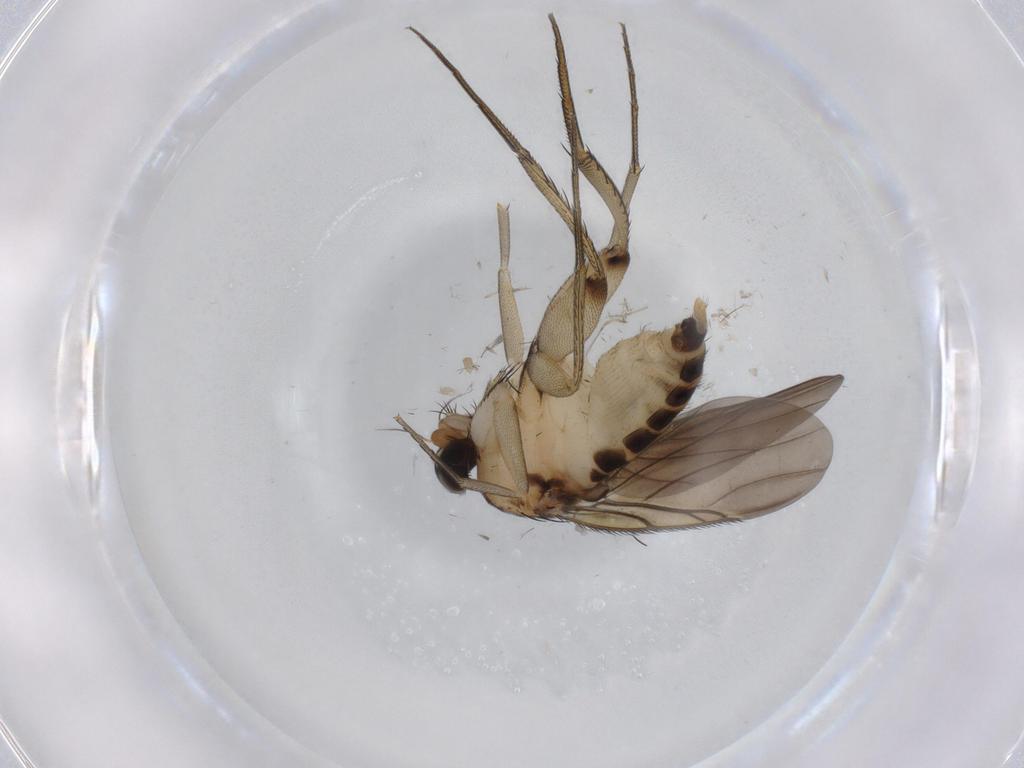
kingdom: Animalia
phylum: Arthropoda
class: Insecta
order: Diptera
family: Phoridae
